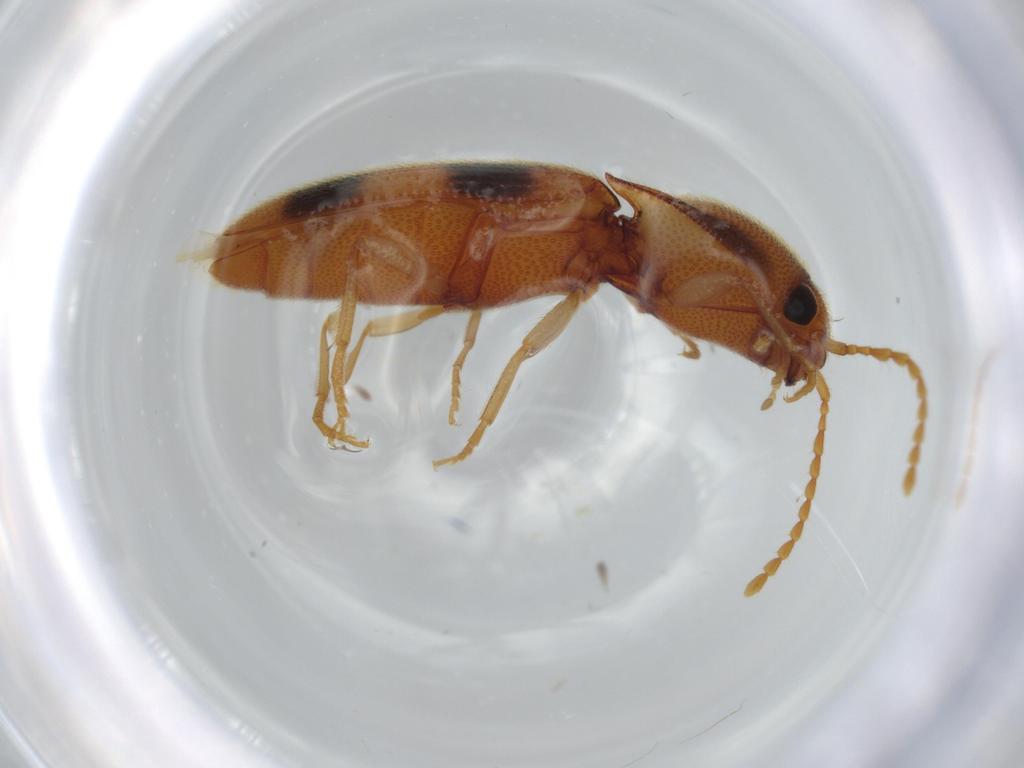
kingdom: Animalia
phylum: Arthropoda
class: Insecta
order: Coleoptera
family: Elateridae
